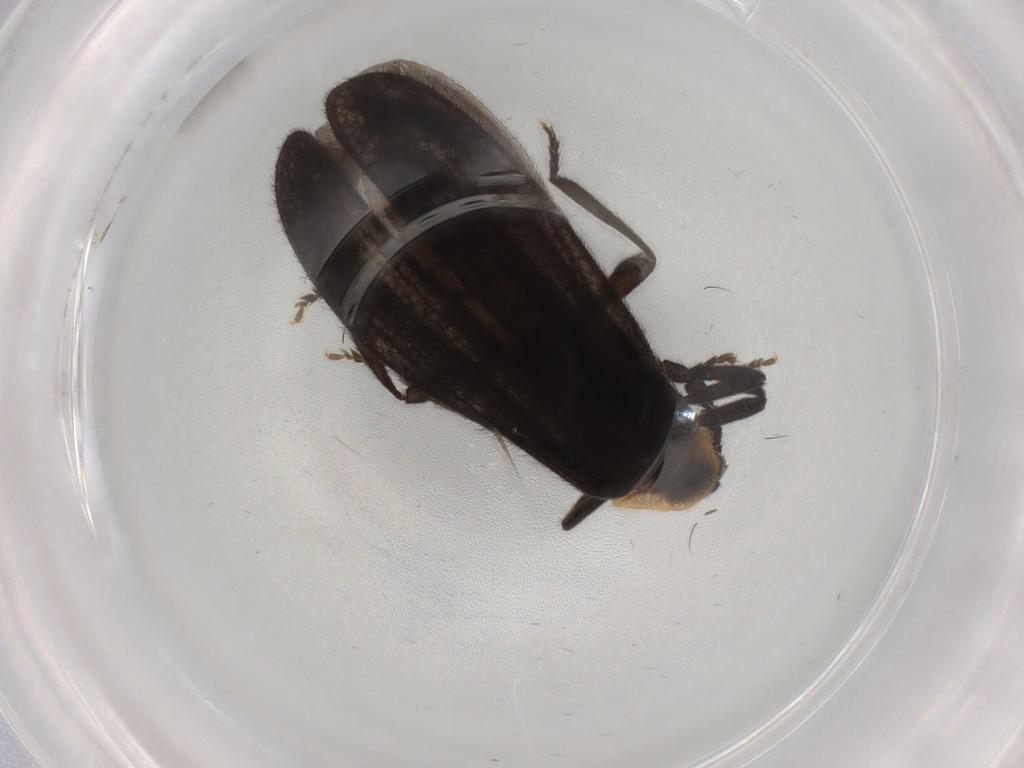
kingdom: Animalia
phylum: Arthropoda
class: Insecta
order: Coleoptera
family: Lycidae
